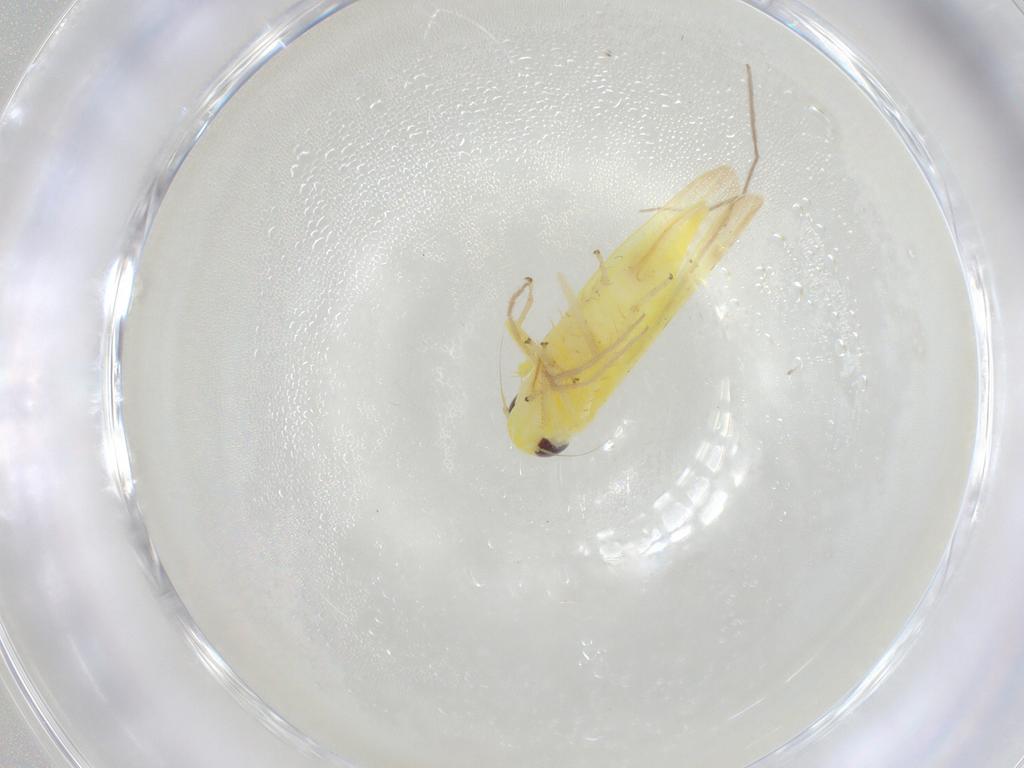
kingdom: Animalia
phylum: Arthropoda
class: Insecta
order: Hemiptera
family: Cicadellidae
